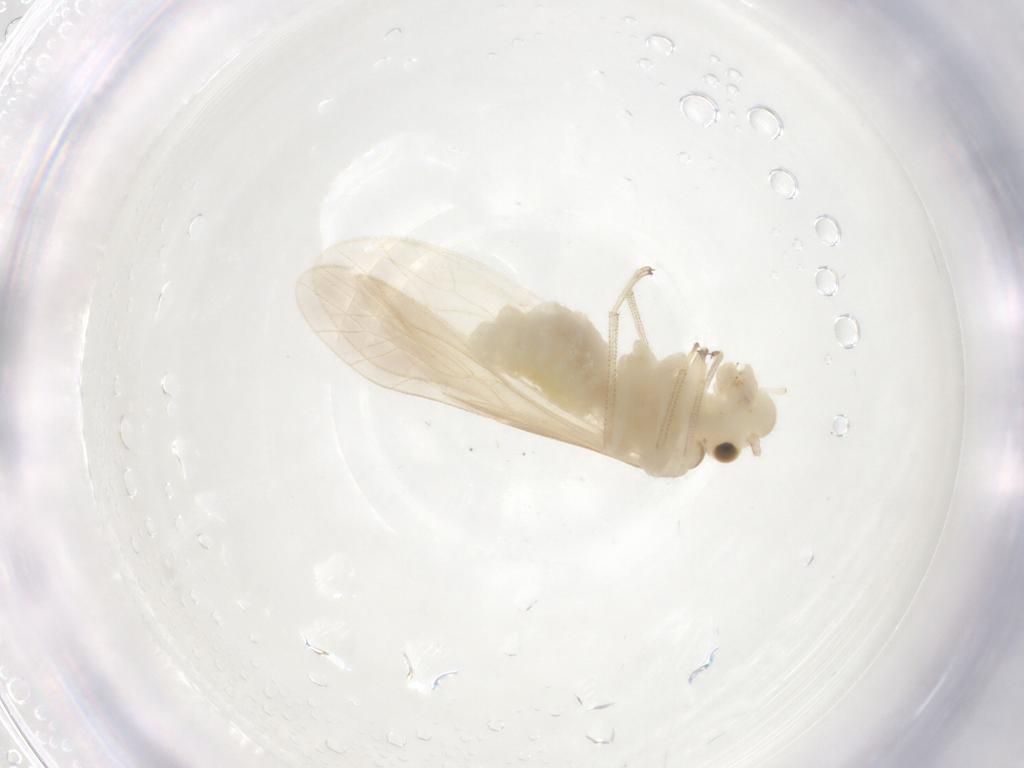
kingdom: Animalia
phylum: Arthropoda
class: Insecta
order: Psocodea
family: Caeciliusidae
